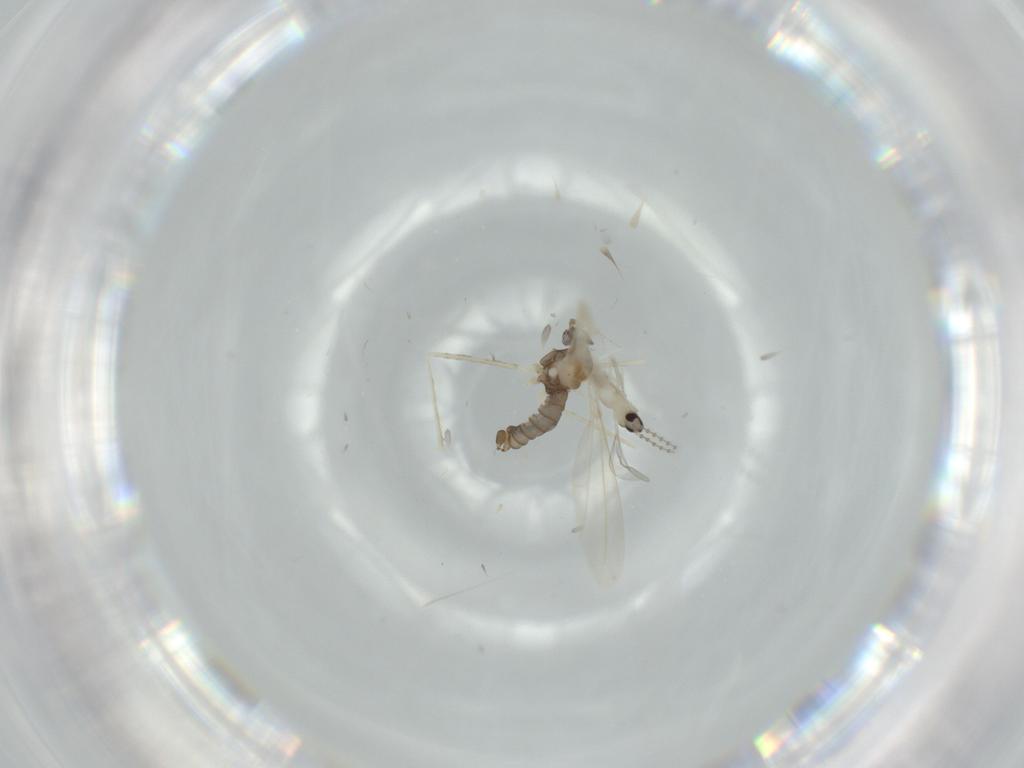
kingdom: Animalia
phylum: Arthropoda
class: Insecta
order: Diptera
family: Cecidomyiidae
